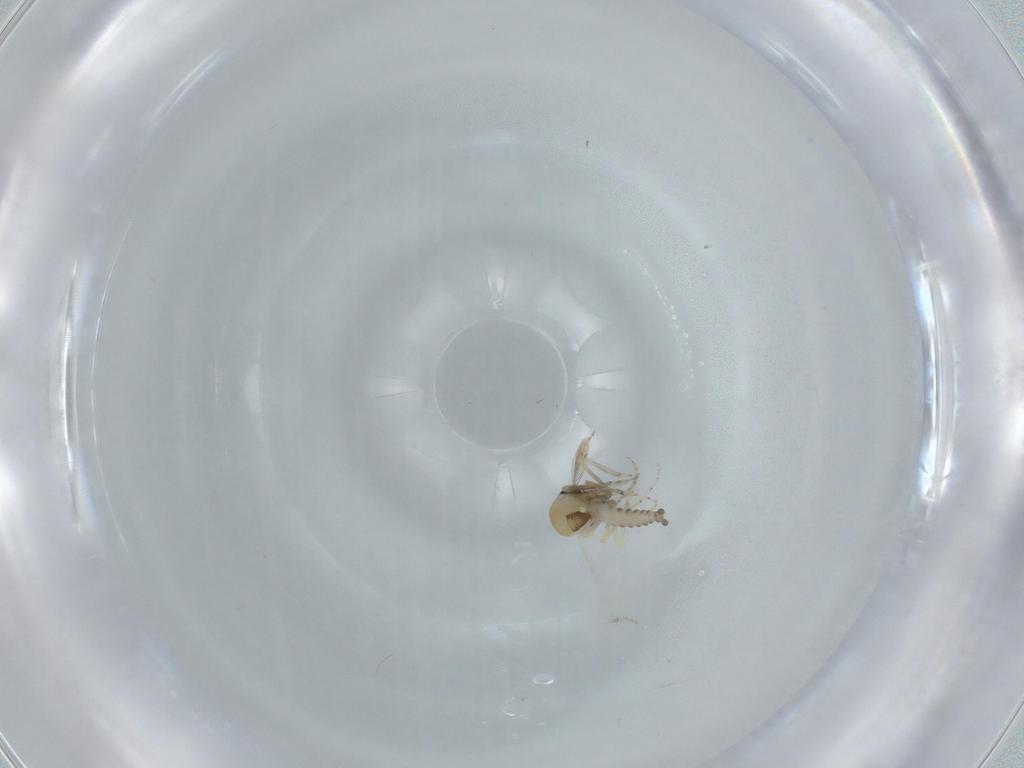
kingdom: Animalia
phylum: Arthropoda
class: Insecta
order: Diptera
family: Ceratopogonidae
